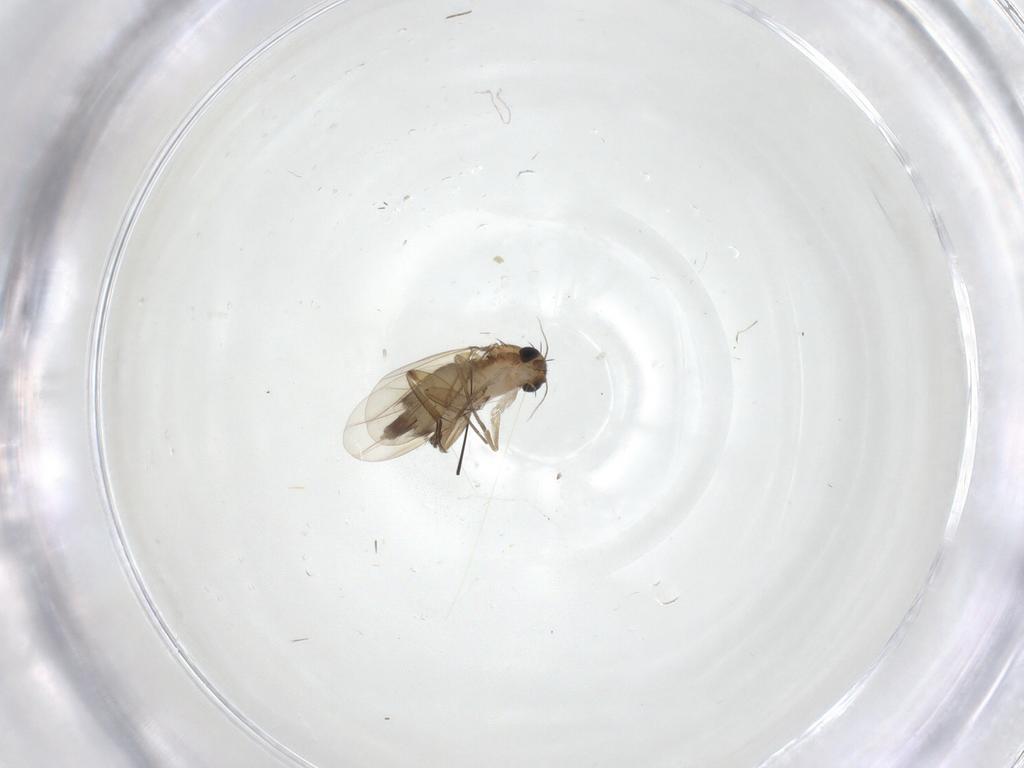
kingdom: Animalia
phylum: Arthropoda
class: Insecta
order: Diptera
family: Phoridae
